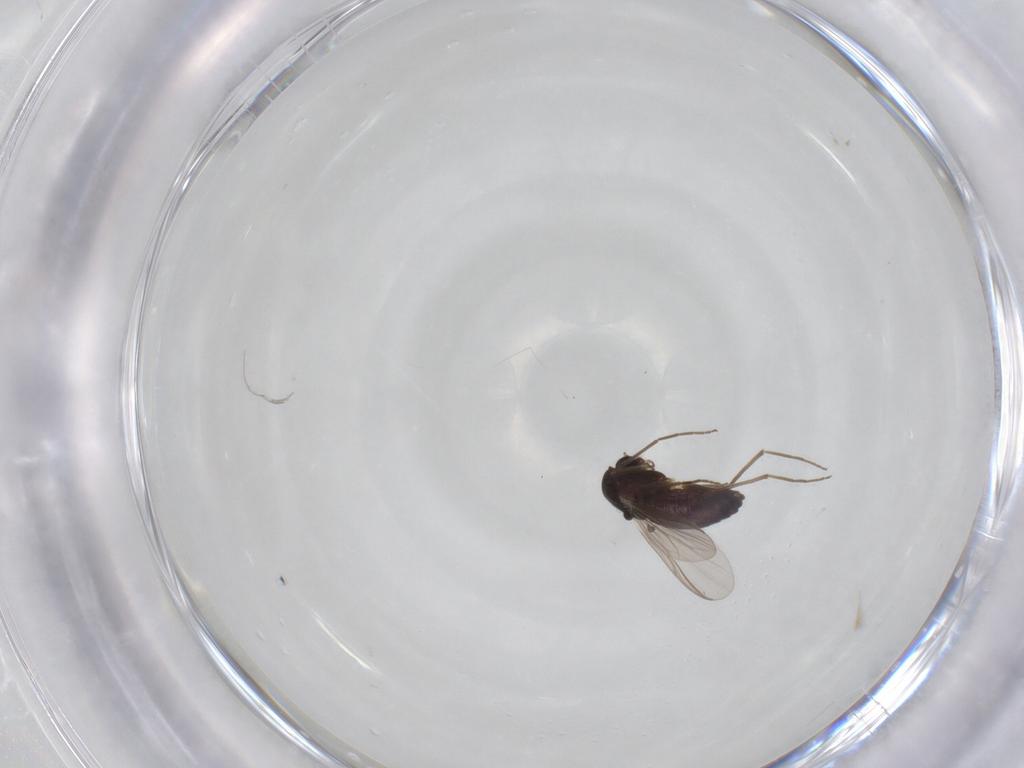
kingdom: Animalia
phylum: Arthropoda
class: Insecta
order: Diptera
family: Chironomidae
